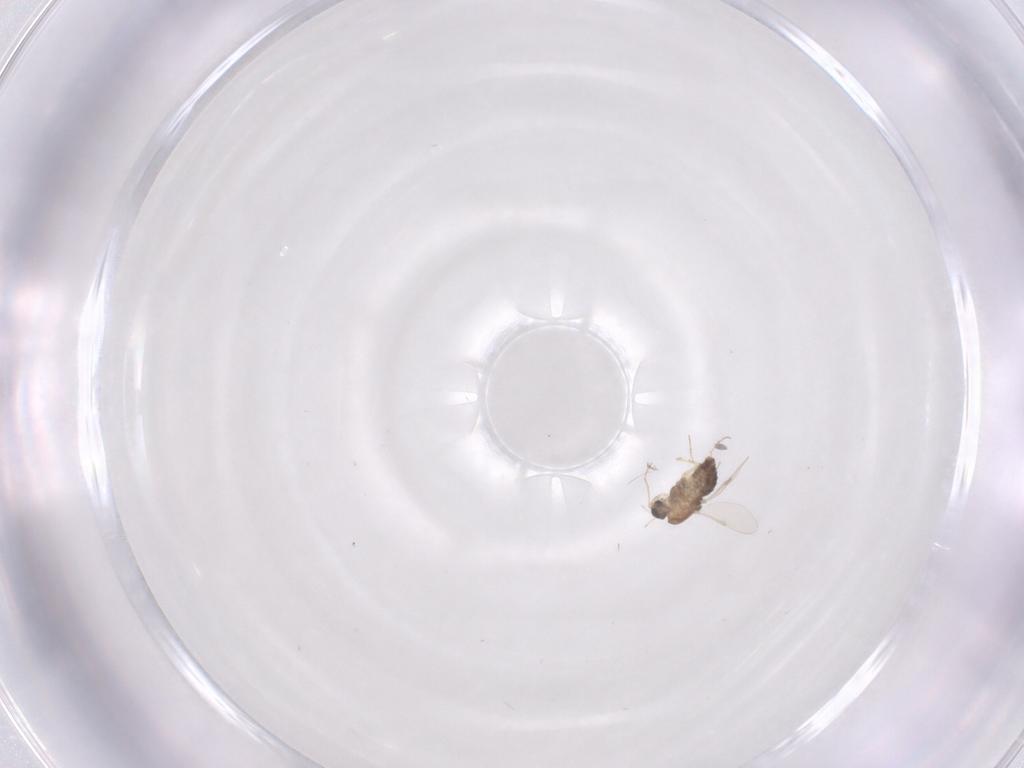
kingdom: Animalia
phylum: Arthropoda
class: Insecta
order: Diptera
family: Chironomidae
